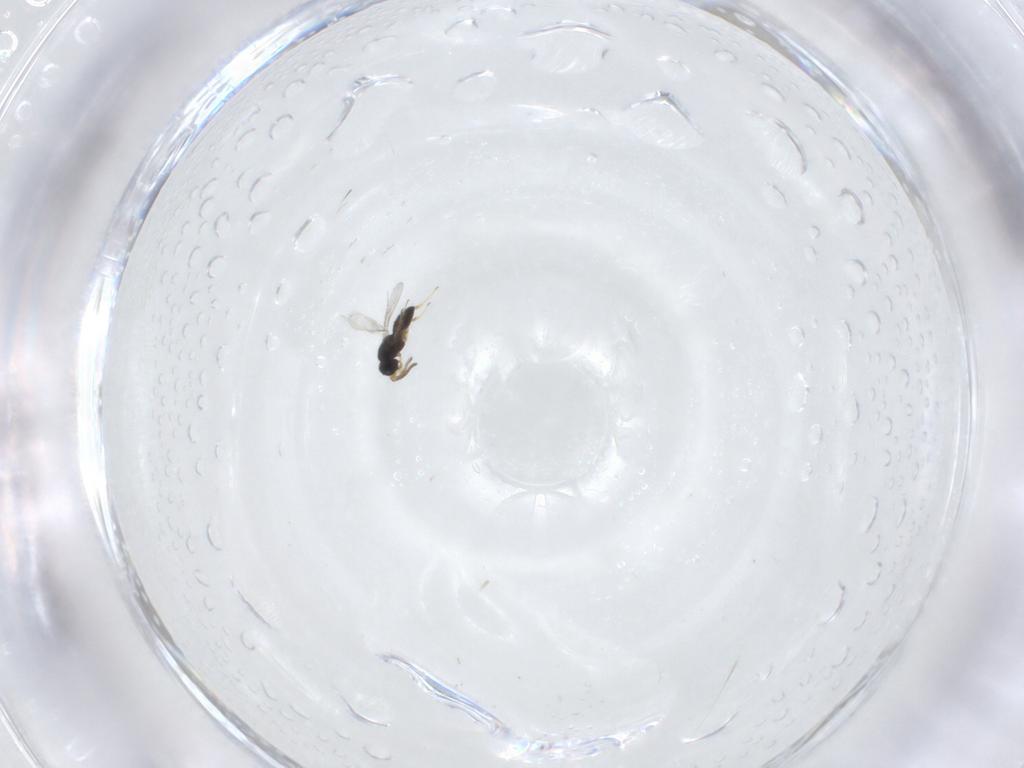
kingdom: Animalia
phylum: Arthropoda
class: Insecta
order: Hymenoptera
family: Scelionidae
